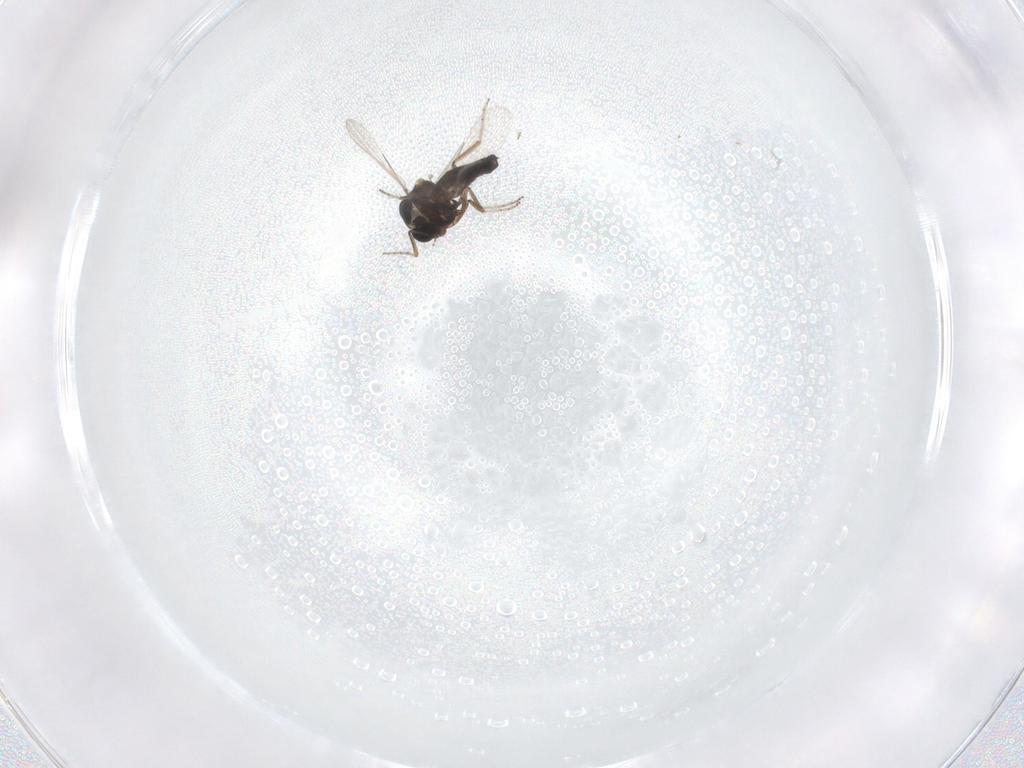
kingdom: Animalia
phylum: Arthropoda
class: Insecta
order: Diptera
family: Ceratopogonidae
